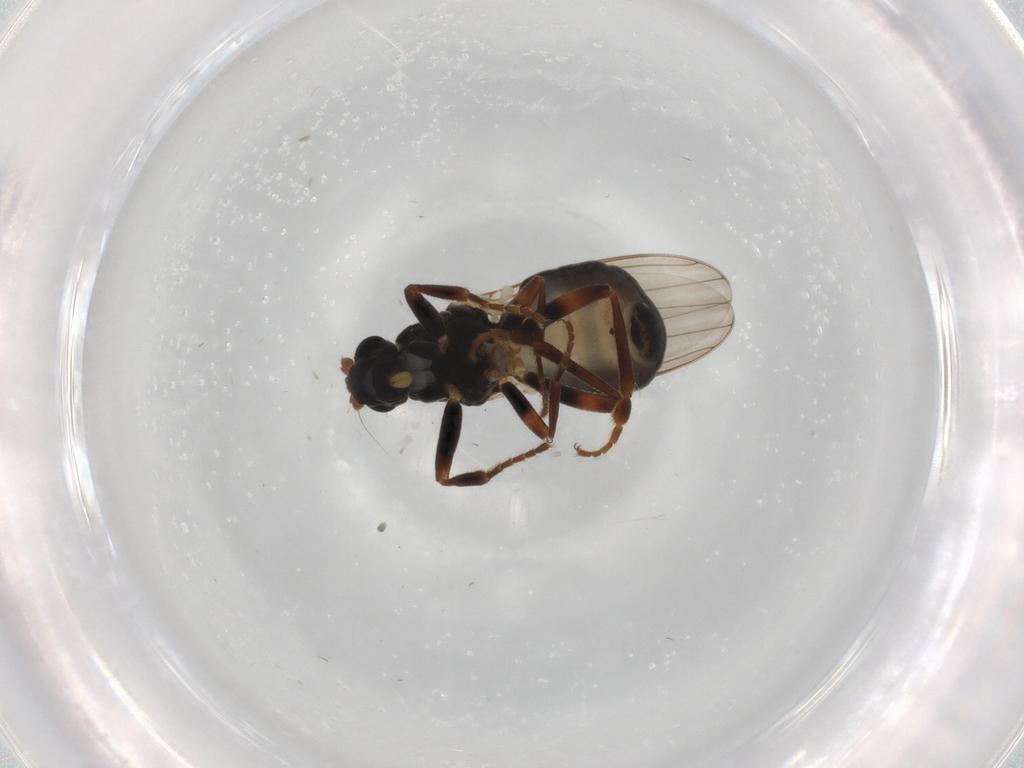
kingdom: Animalia
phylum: Arthropoda
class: Insecta
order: Diptera
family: Sphaeroceridae
